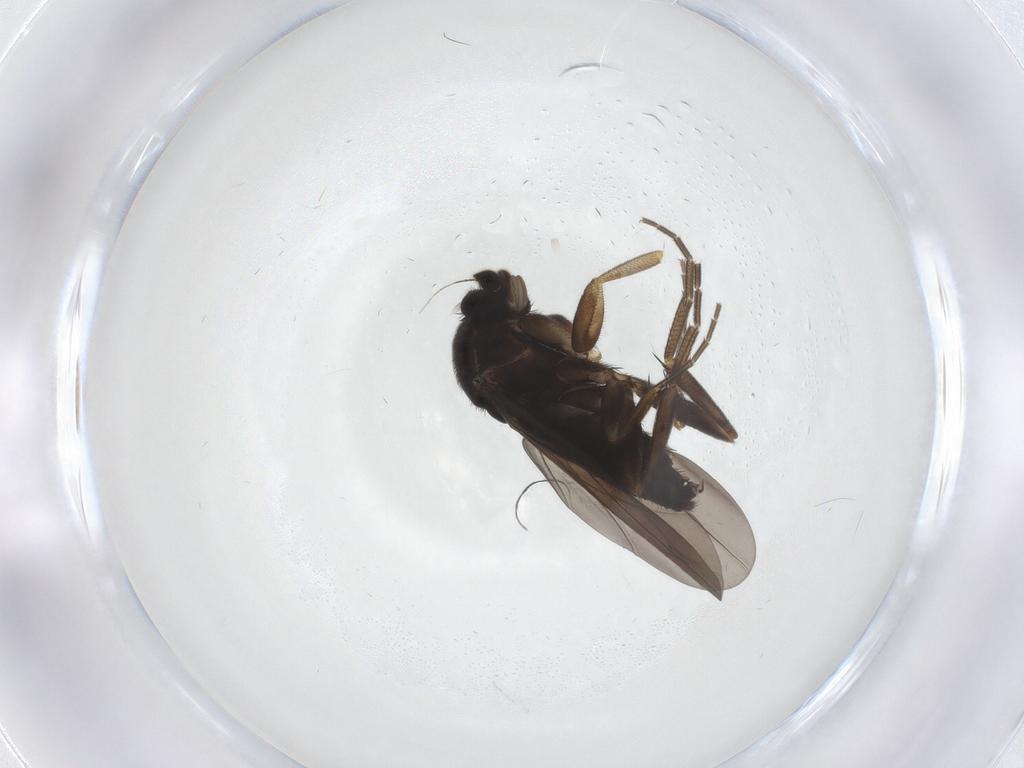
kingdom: Animalia
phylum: Arthropoda
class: Insecta
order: Diptera
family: Phoridae
